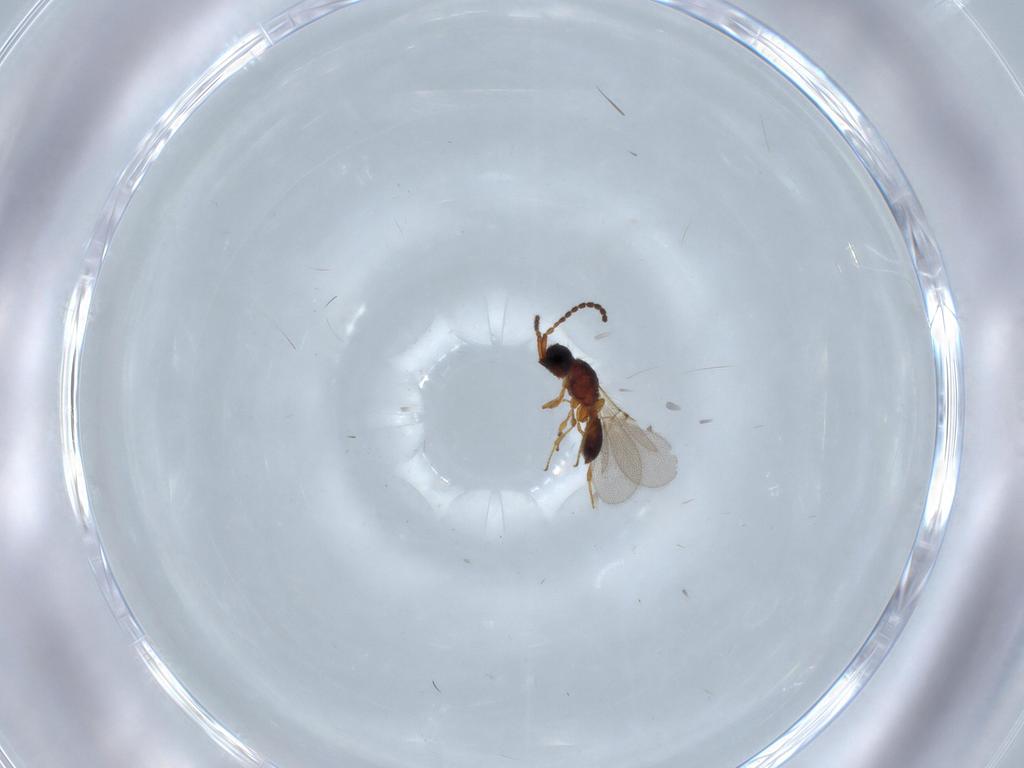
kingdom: Animalia
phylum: Arthropoda
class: Insecta
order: Hymenoptera
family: Diapriidae
